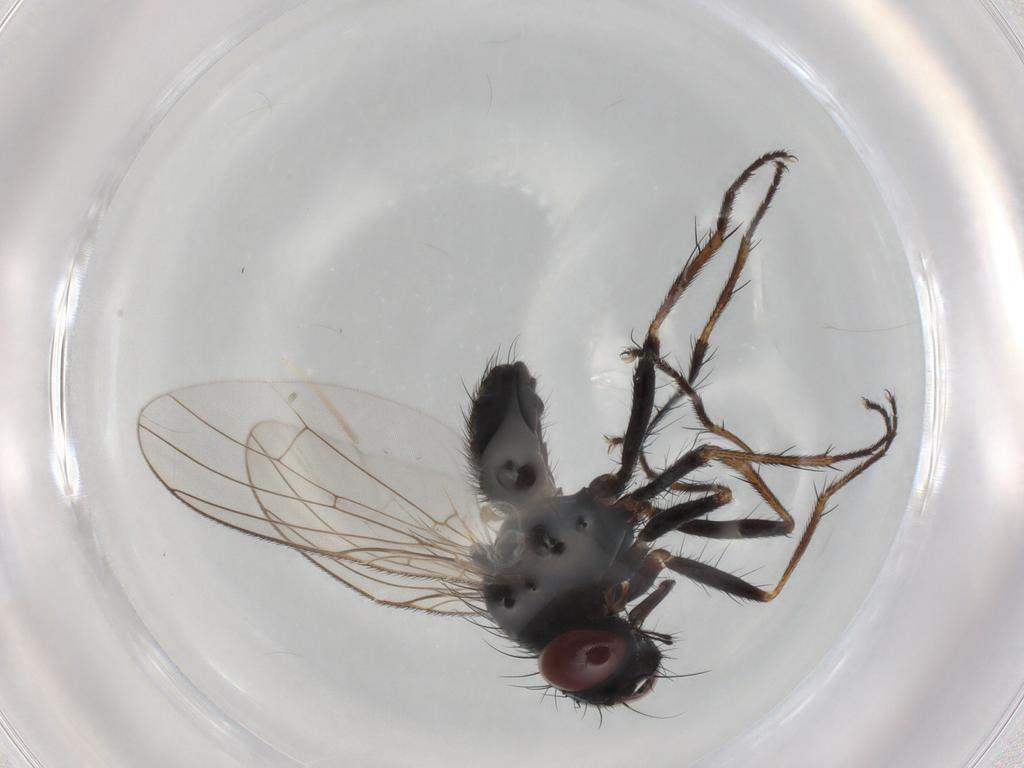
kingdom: Animalia
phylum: Arthropoda
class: Insecta
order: Diptera
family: Muscidae
